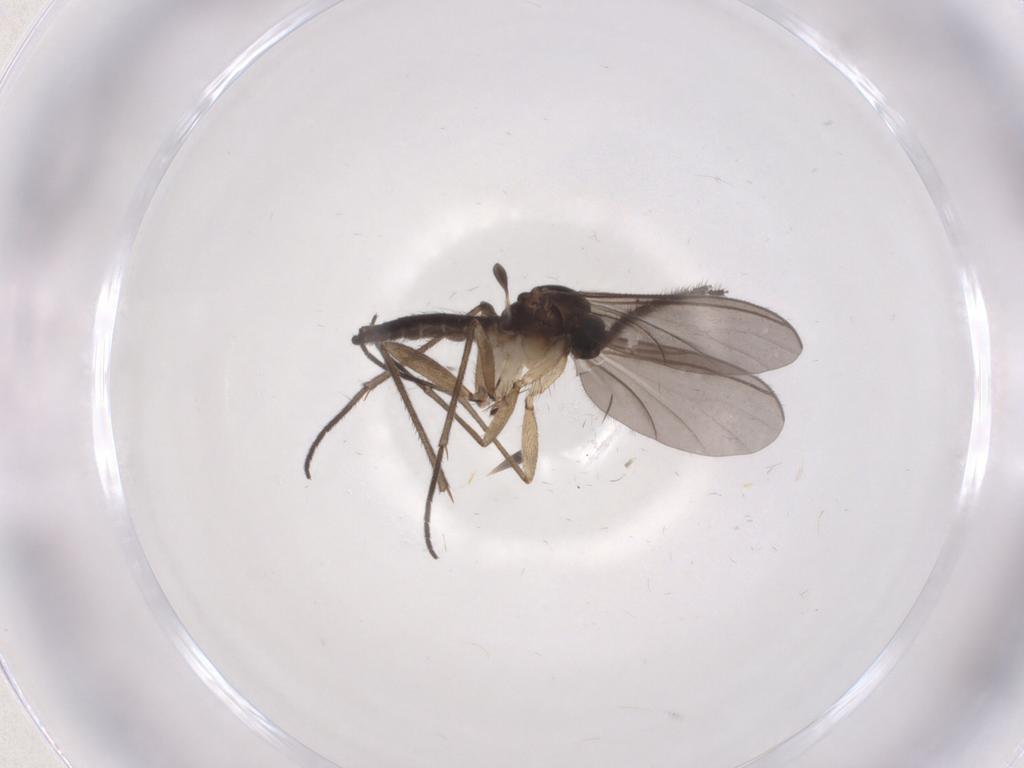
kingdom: Animalia
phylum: Arthropoda
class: Insecta
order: Diptera
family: Sciaridae
